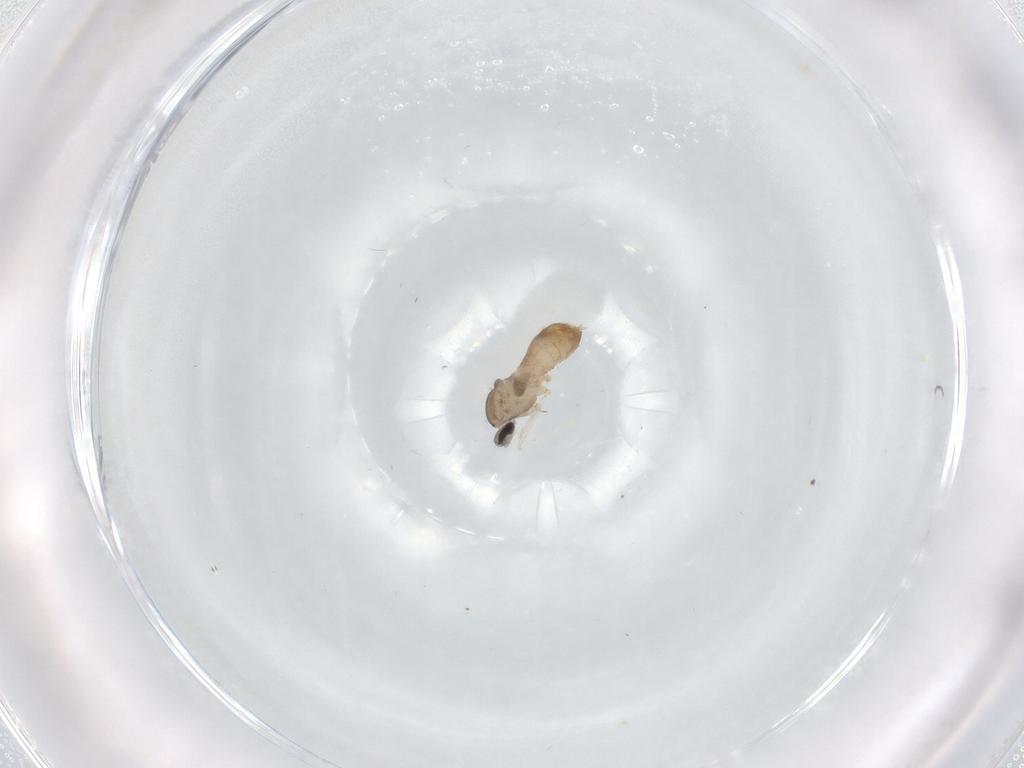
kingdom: Animalia
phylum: Arthropoda
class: Insecta
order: Diptera
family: Cecidomyiidae
